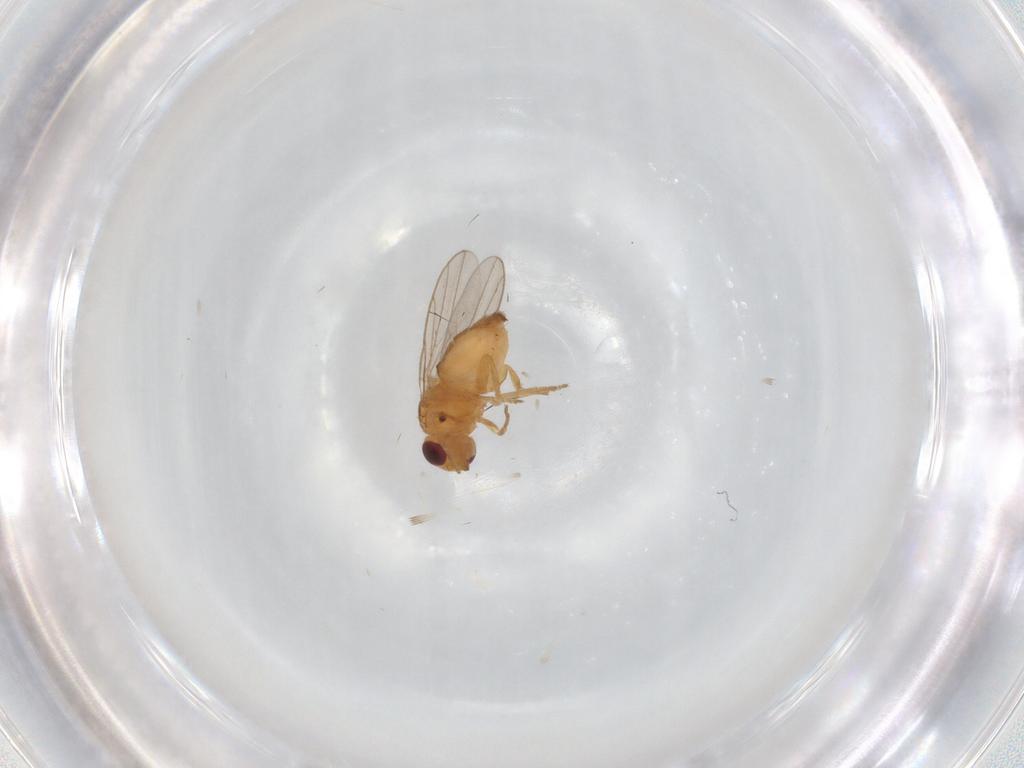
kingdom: Animalia
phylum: Arthropoda
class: Insecta
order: Diptera
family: Chloropidae
